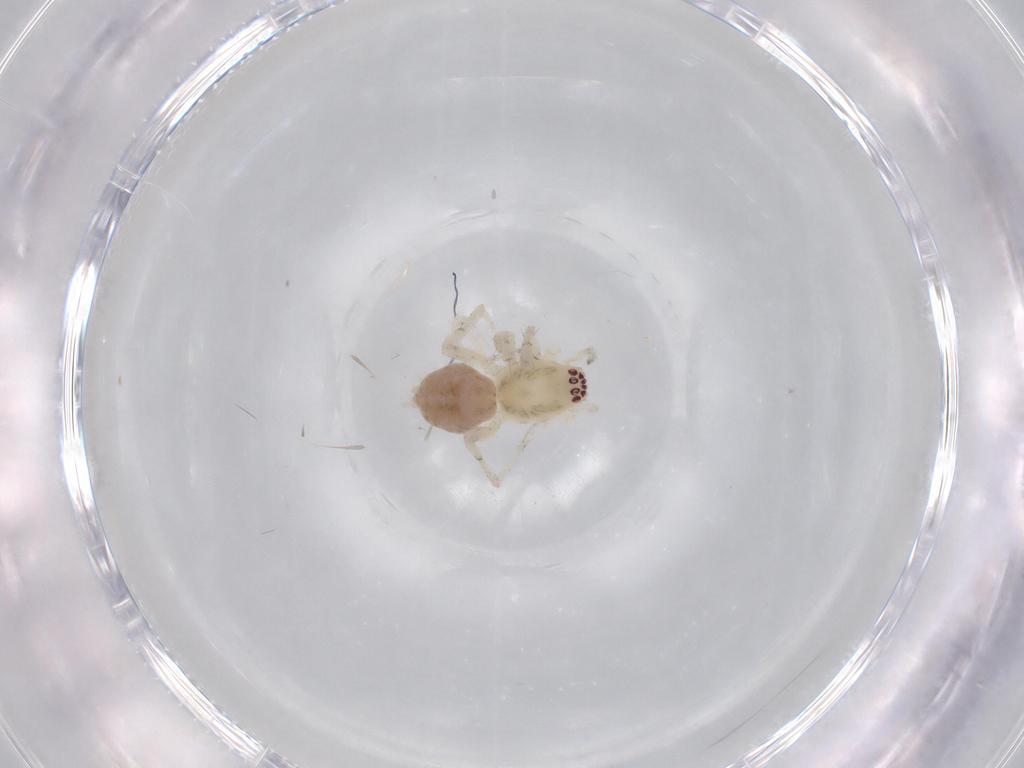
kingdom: Animalia
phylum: Arthropoda
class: Arachnida
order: Araneae
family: Anyphaenidae
